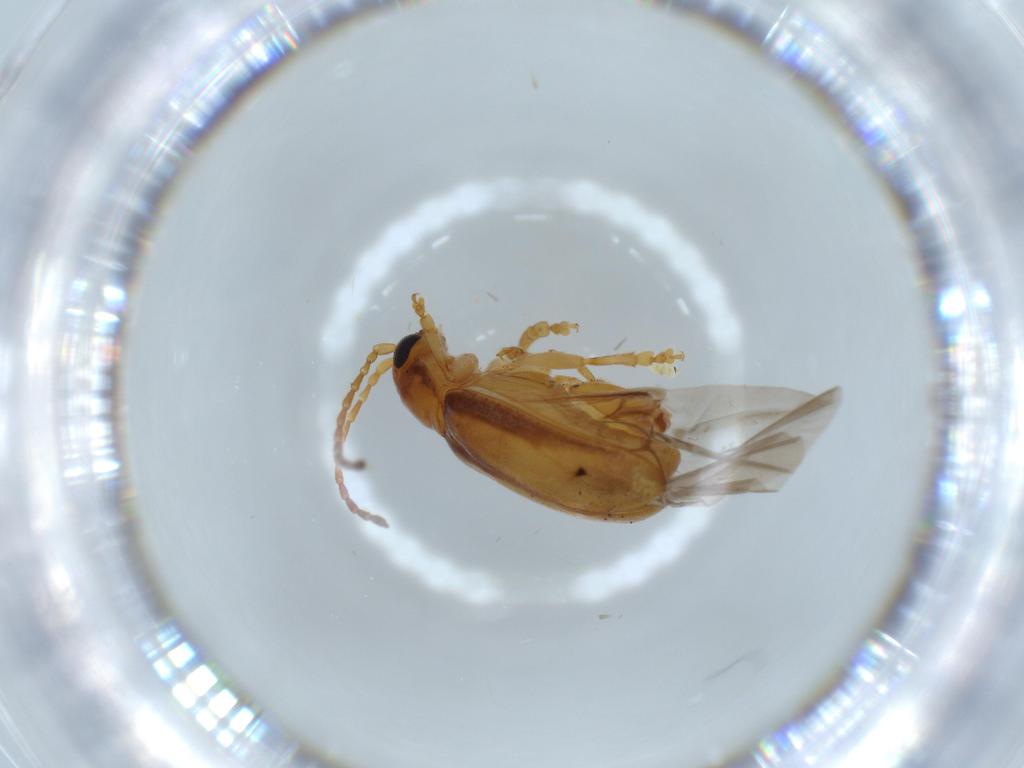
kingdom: Animalia
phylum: Arthropoda
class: Insecta
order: Coleoptera
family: Chrysomelidae
